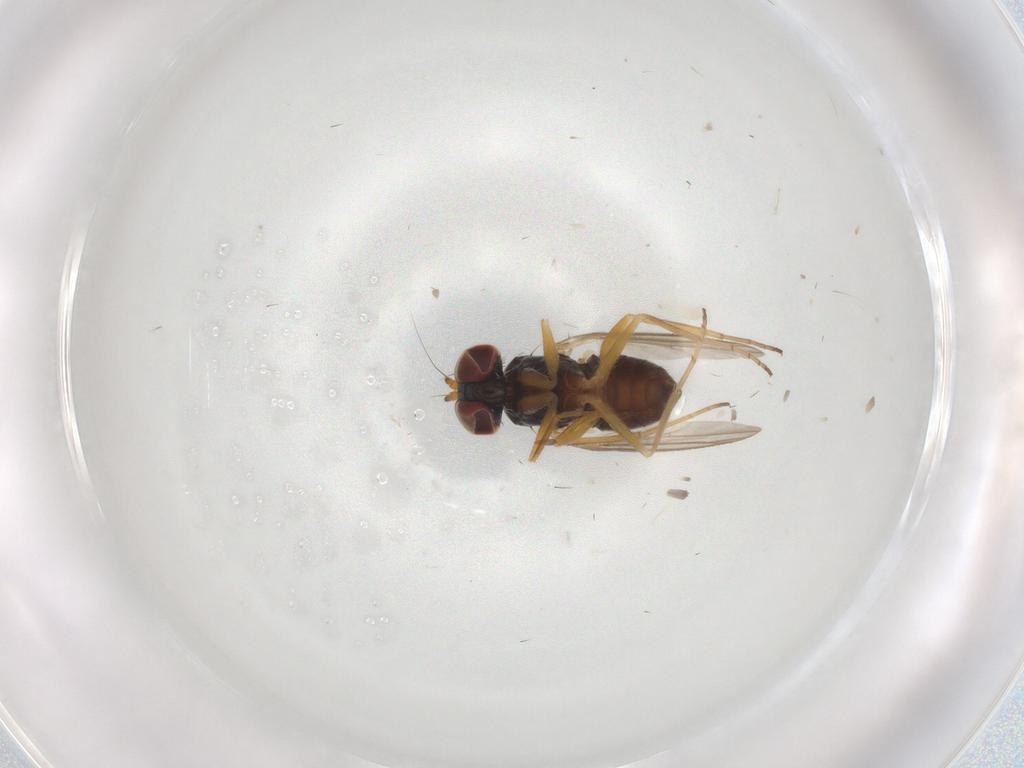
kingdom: Animalia
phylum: Arthropoda
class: Insecta
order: Diptera
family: Dolichopodidae
